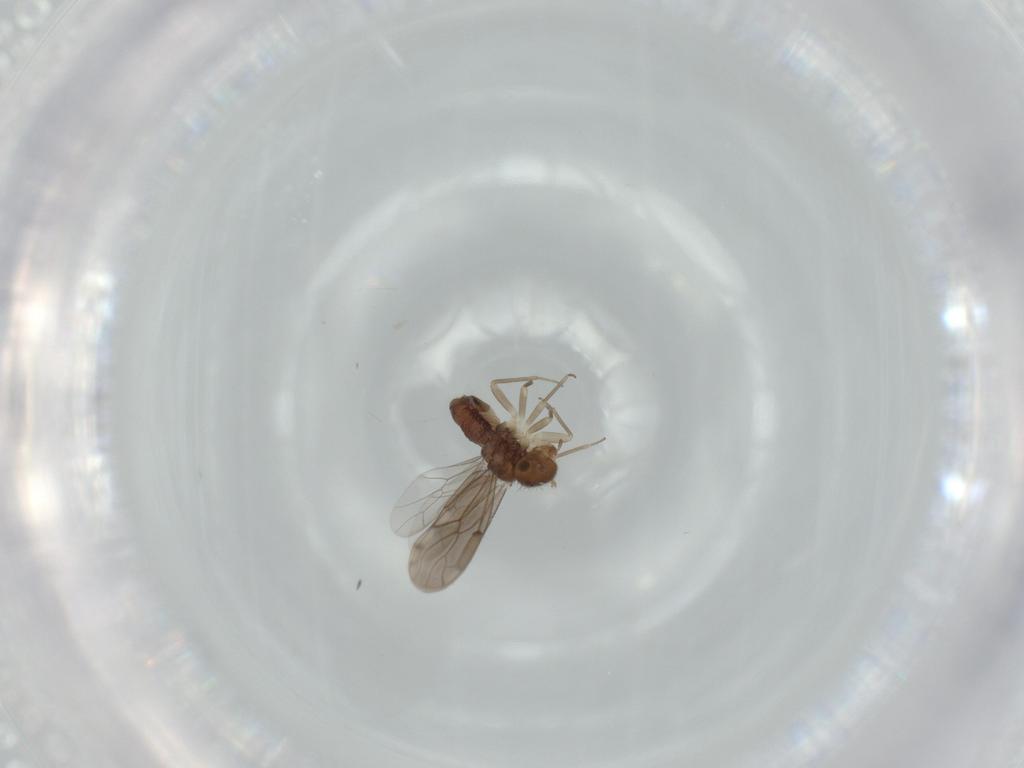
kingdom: Animalia
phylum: Arthropoda
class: Insecta
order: Psocodea
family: Ectopsocidae
